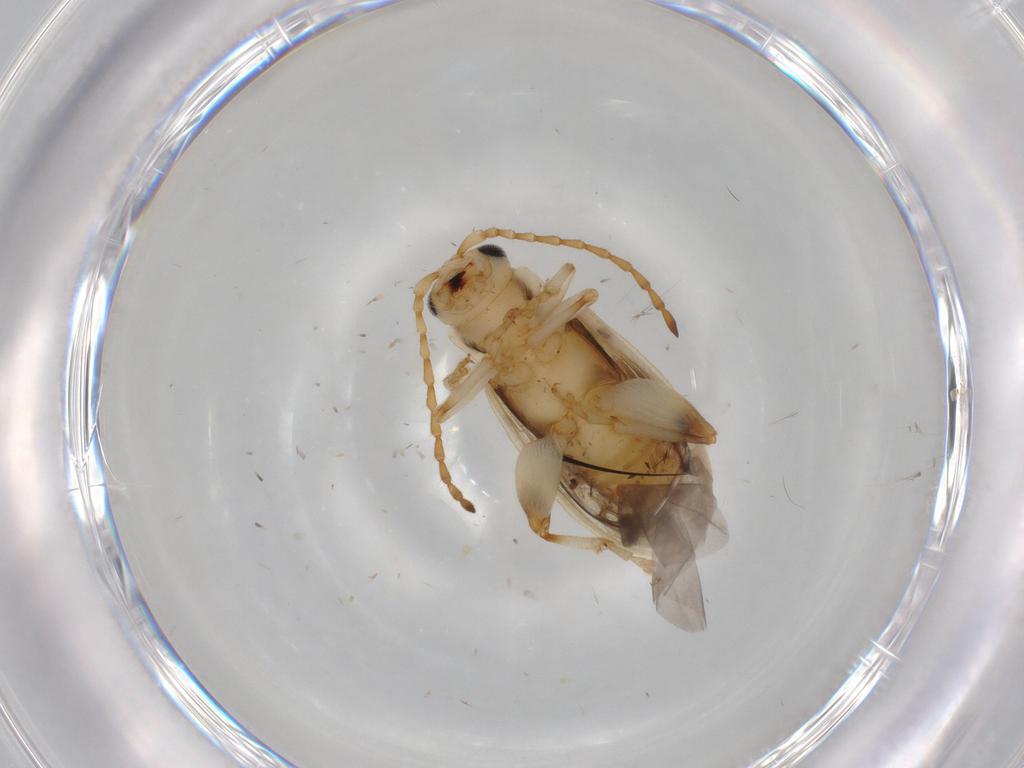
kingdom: Animalia
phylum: Arthropoda
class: Insecta
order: Coleoptera
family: Chrysomelidae
